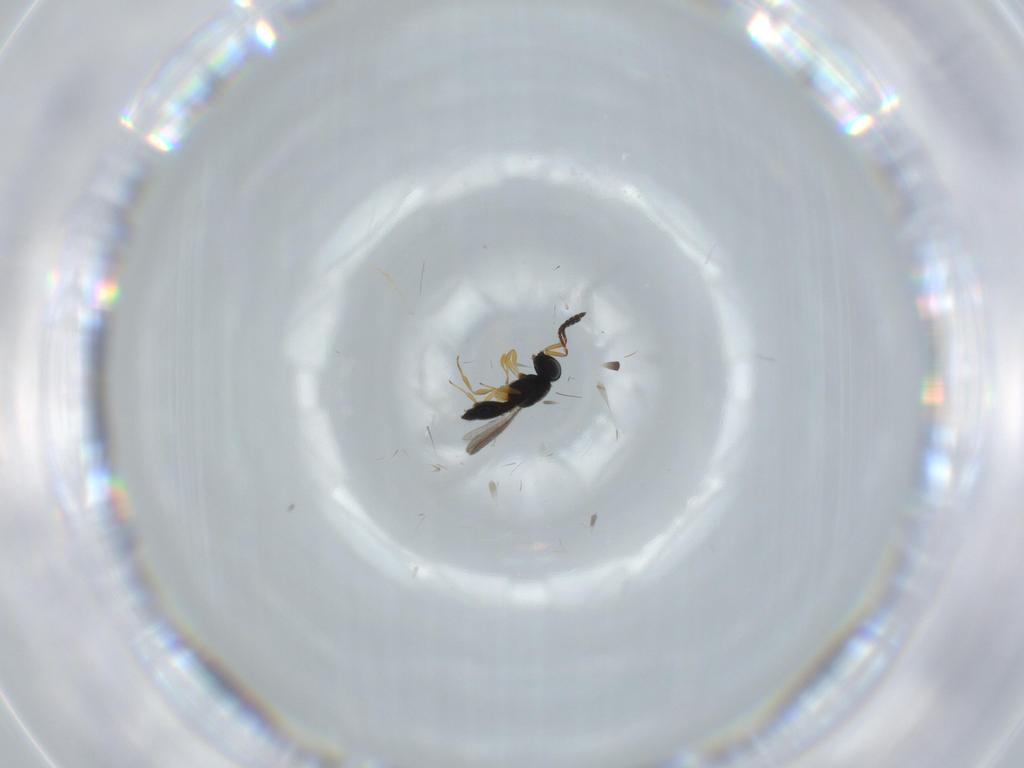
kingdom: Animalia
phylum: Arthropoda
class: Insecta
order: Hymenoptera
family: Scelionidae
